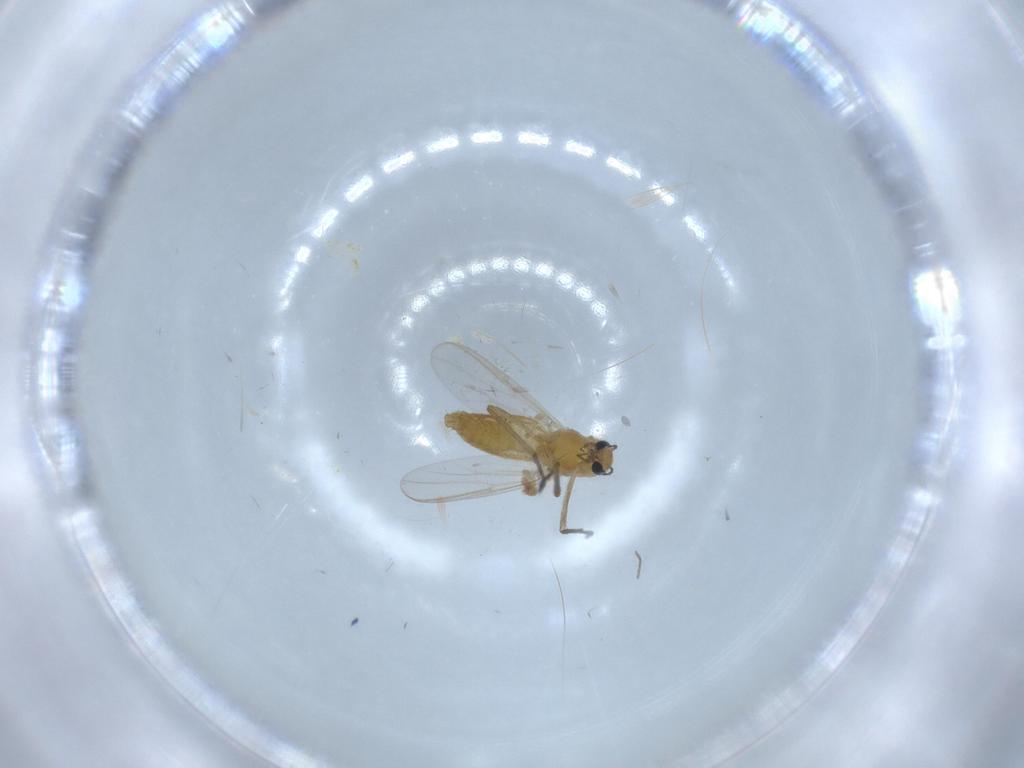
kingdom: Animalia
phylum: Arthropoda
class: Insecta
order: Diptera
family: Chironomidae
